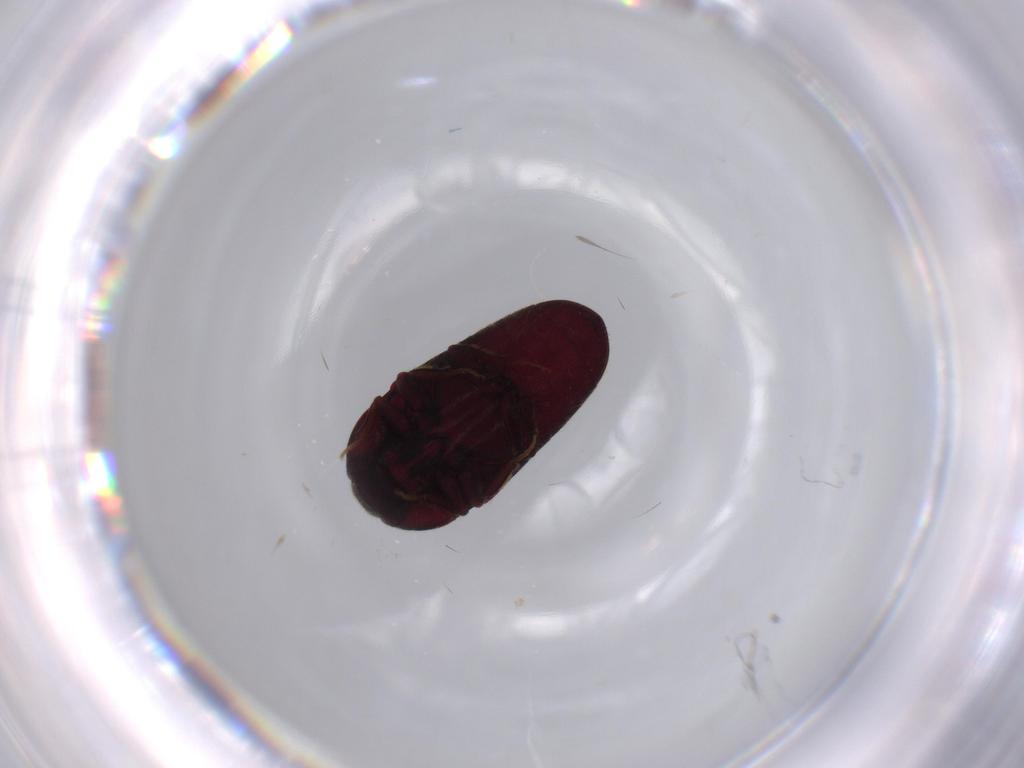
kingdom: Animalia
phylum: Arthropoda
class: Insecta
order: Coleoptera
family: Throscidae
